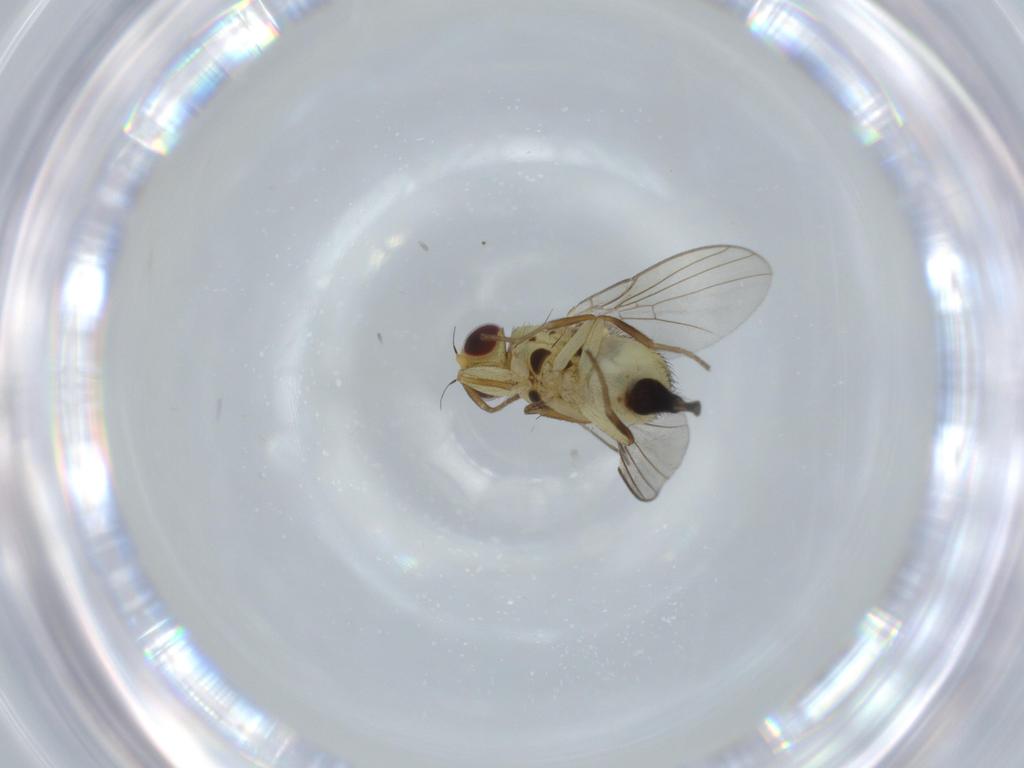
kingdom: Animalia
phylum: Arthropoda
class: Insecta
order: Diptera
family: Agromyzidae
